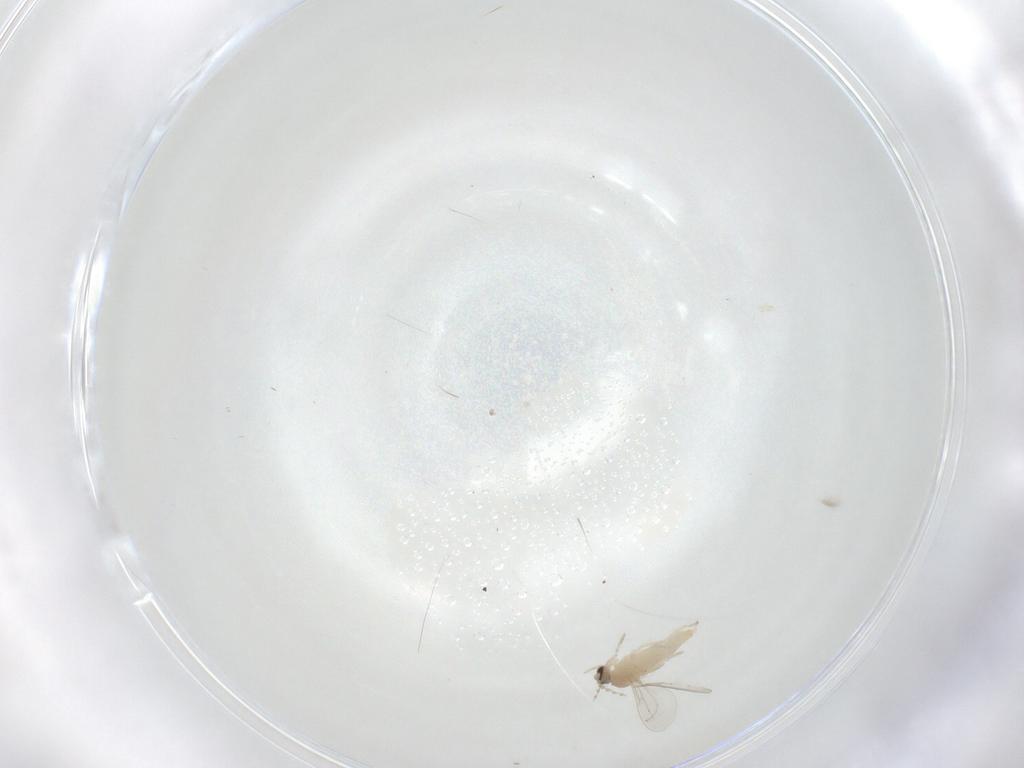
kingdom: Animalia
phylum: Arthropoda
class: Insecta
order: Diptera
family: Cecidomyiidae
